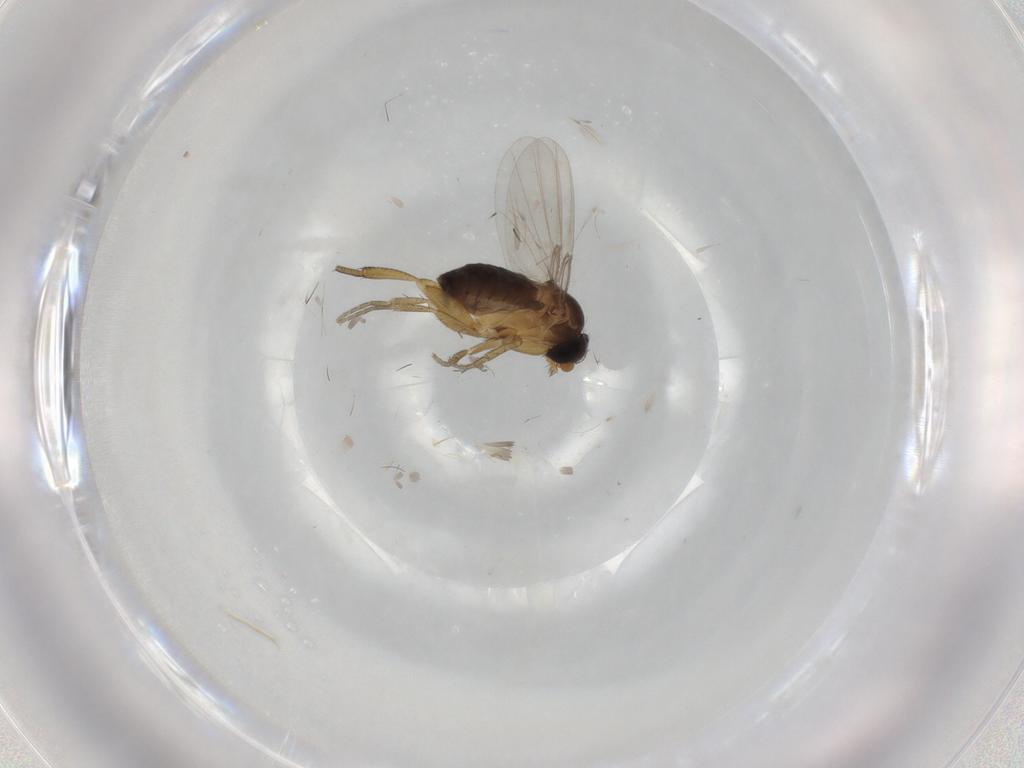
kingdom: Animalia
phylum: Arthropoda
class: Insecta
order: Diptera
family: Phoridae
